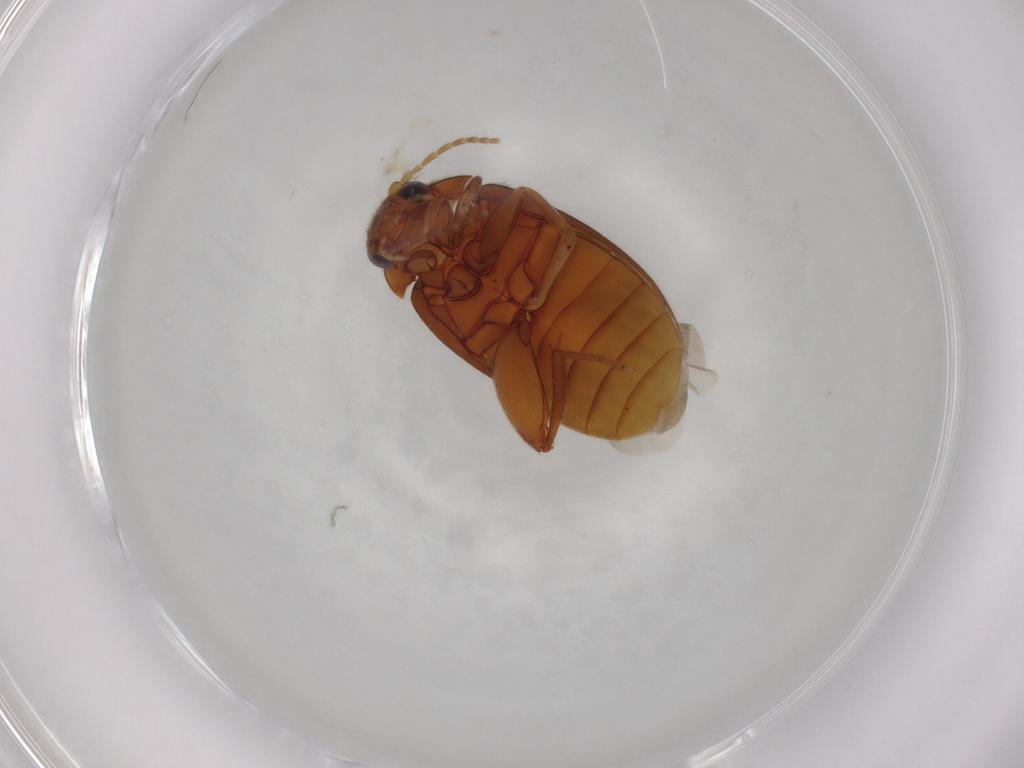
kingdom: Animalia
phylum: Arthropoda
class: Insecta
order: Coleoptera
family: Scirtidae
